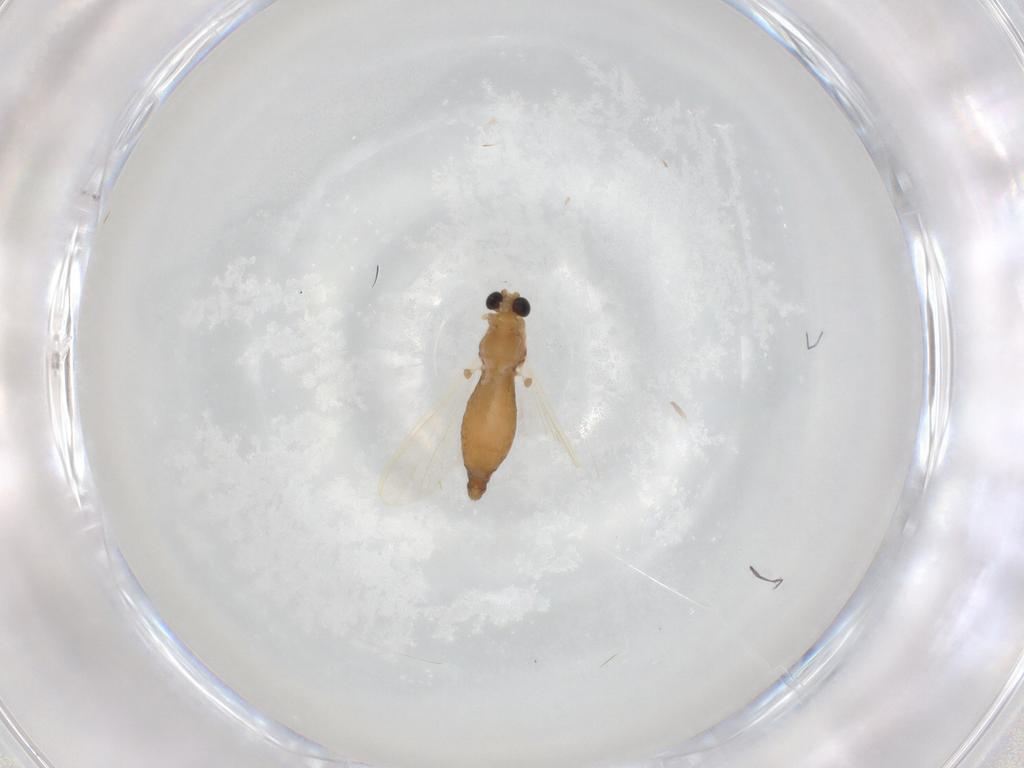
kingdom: Animalia
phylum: Arthropoda
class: Insecta
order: Diptera
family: Chironomidae
